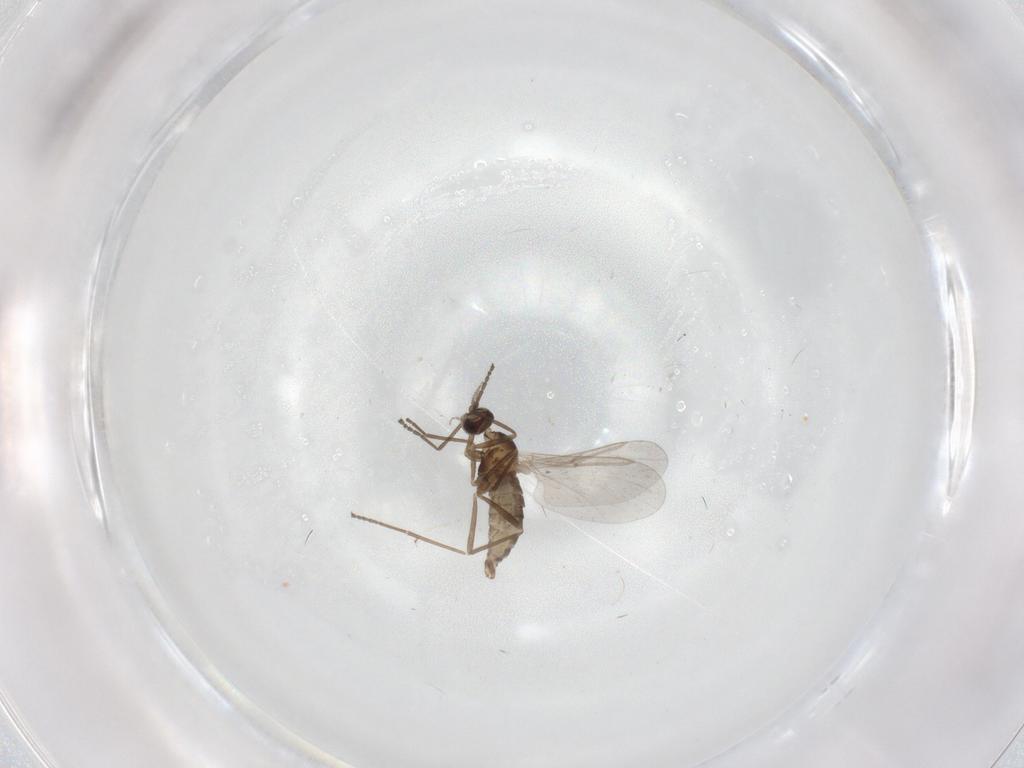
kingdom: Animalia
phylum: Arthropoda
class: Insecta
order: Diptera
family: Cecidomyiidae
